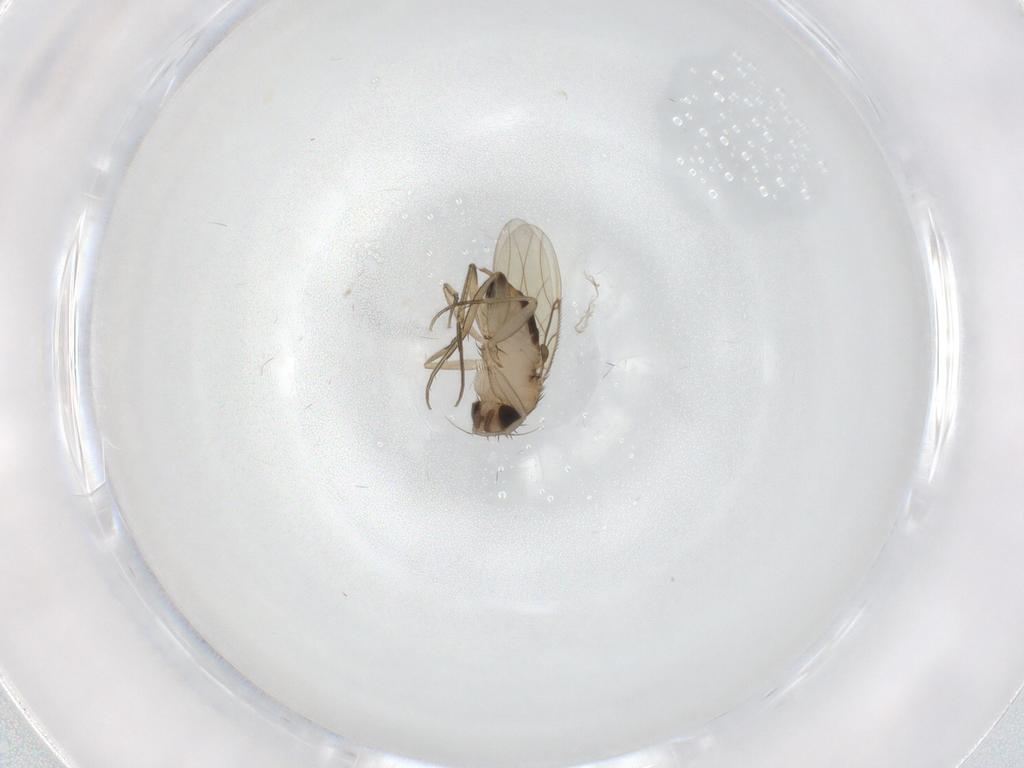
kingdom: Animalia
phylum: Arthropoda
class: Insecta
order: Diptera
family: Phoridae
